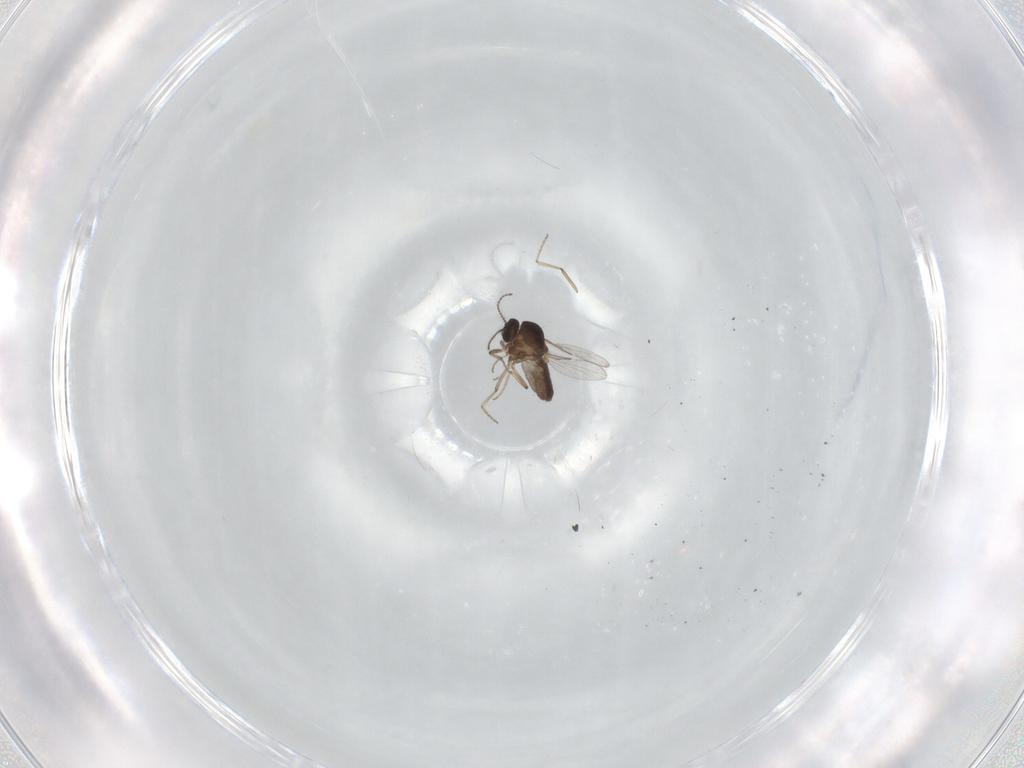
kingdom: Animalia
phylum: Arthropoda
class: Insecta
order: Diptera
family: Ceratopogonidae
